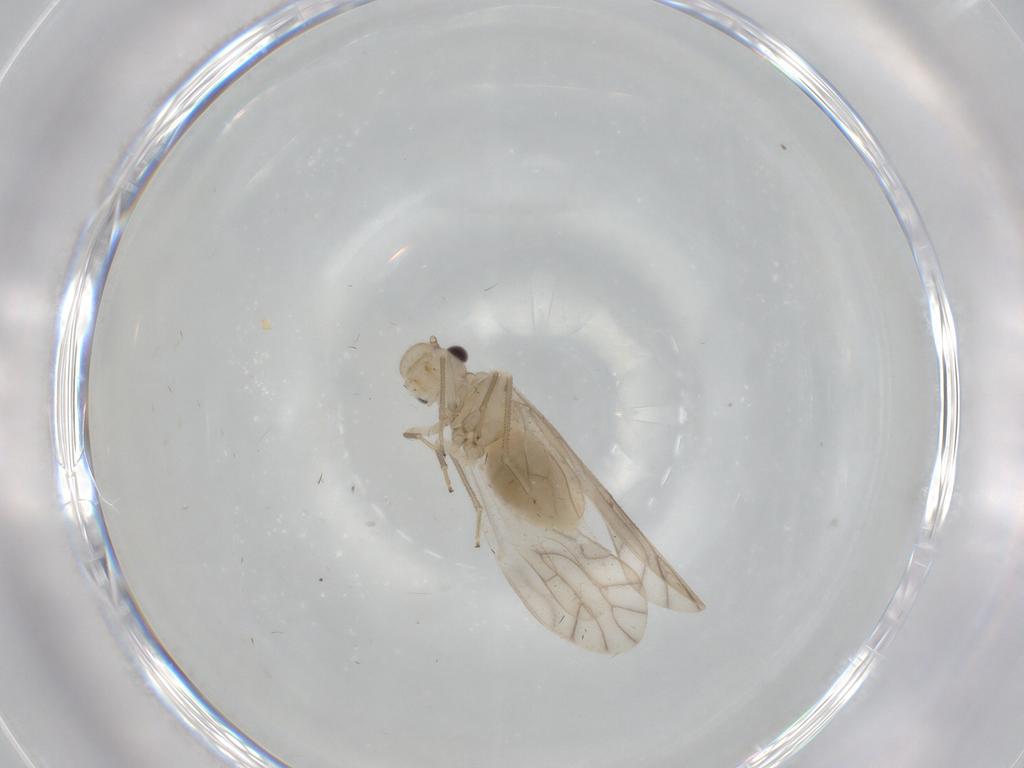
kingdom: Animalia
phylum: Arthropoda
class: Insecta
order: Psocodea
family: Caeciliusidae
